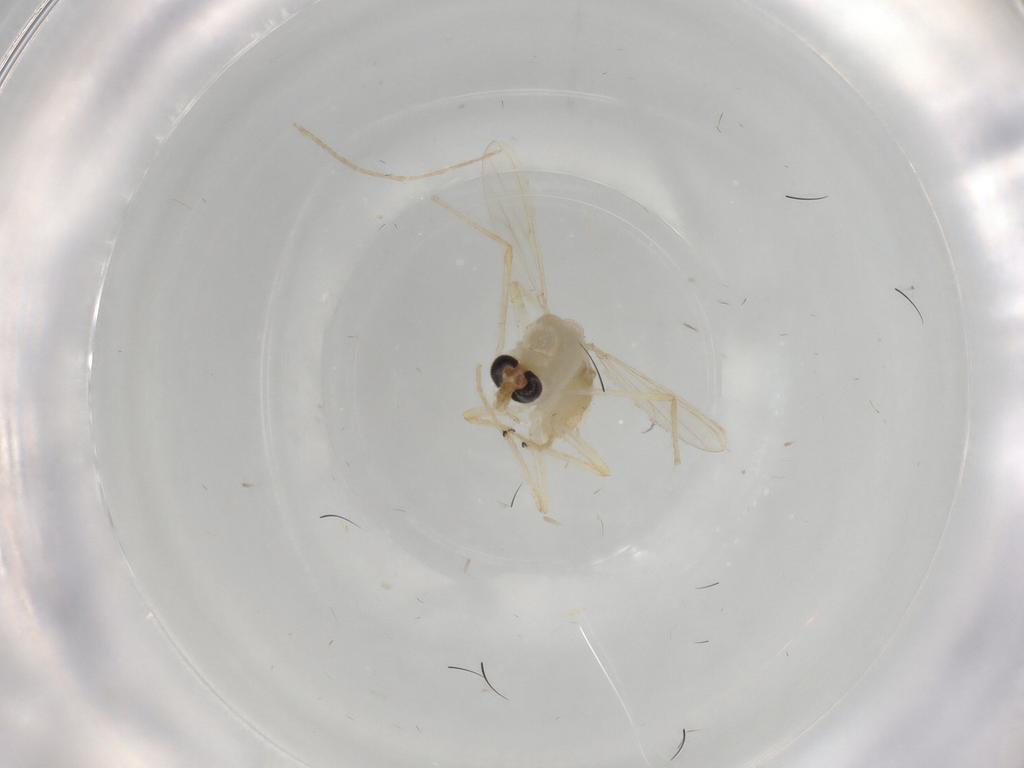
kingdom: Animalia
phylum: Arthropoda
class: Insecta
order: Diptera
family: Chironomidae
